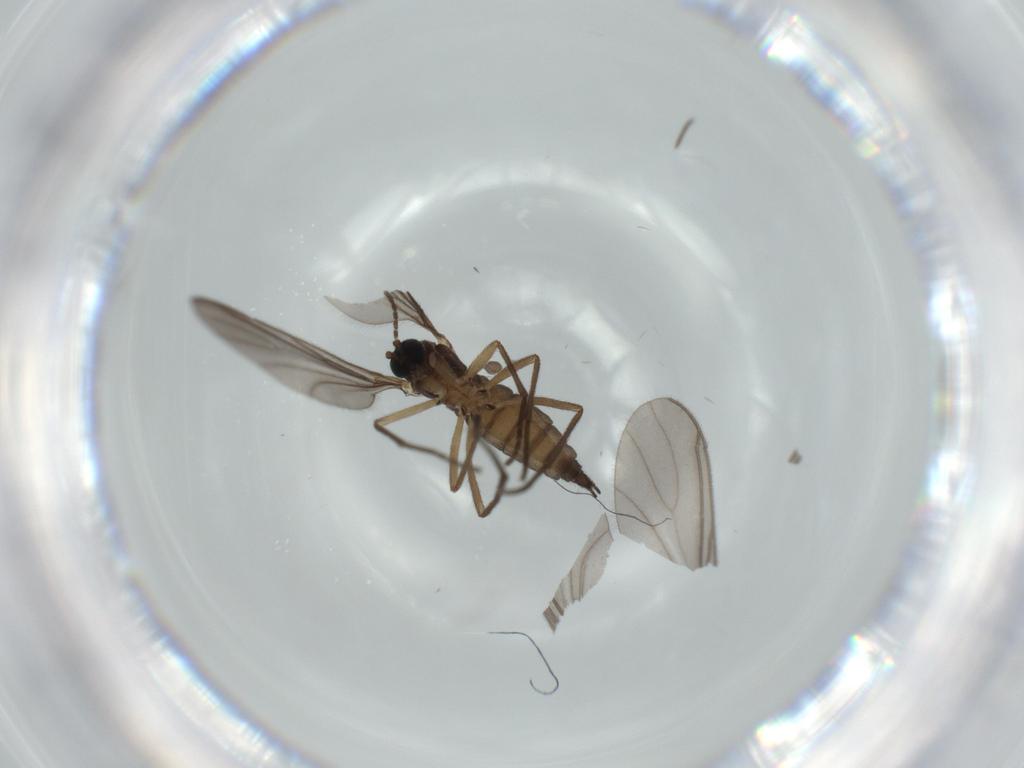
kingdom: Animalia
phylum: Arthropoda
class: Insecta
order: Diptera
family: Sciaridae
